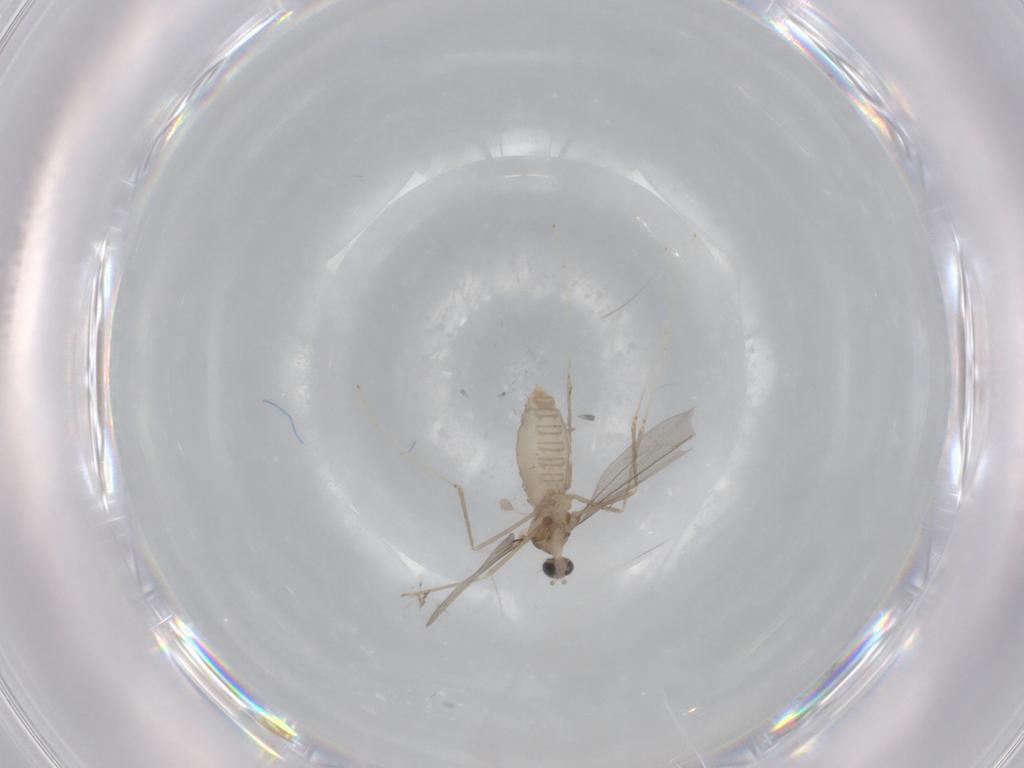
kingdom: Animalia
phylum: Arthropoda
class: Insecta
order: Diptera
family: Cecidomyiidae
